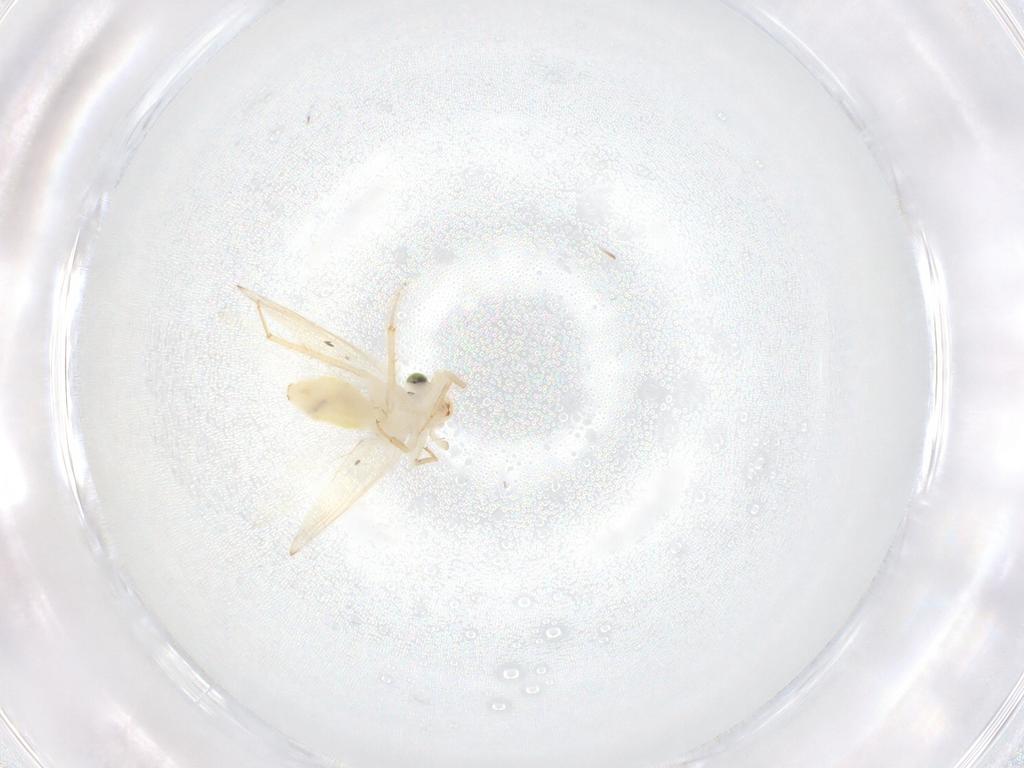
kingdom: Animalia
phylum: Arthropoda
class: Insecta
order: Psocodea
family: Lepidopsocidae
